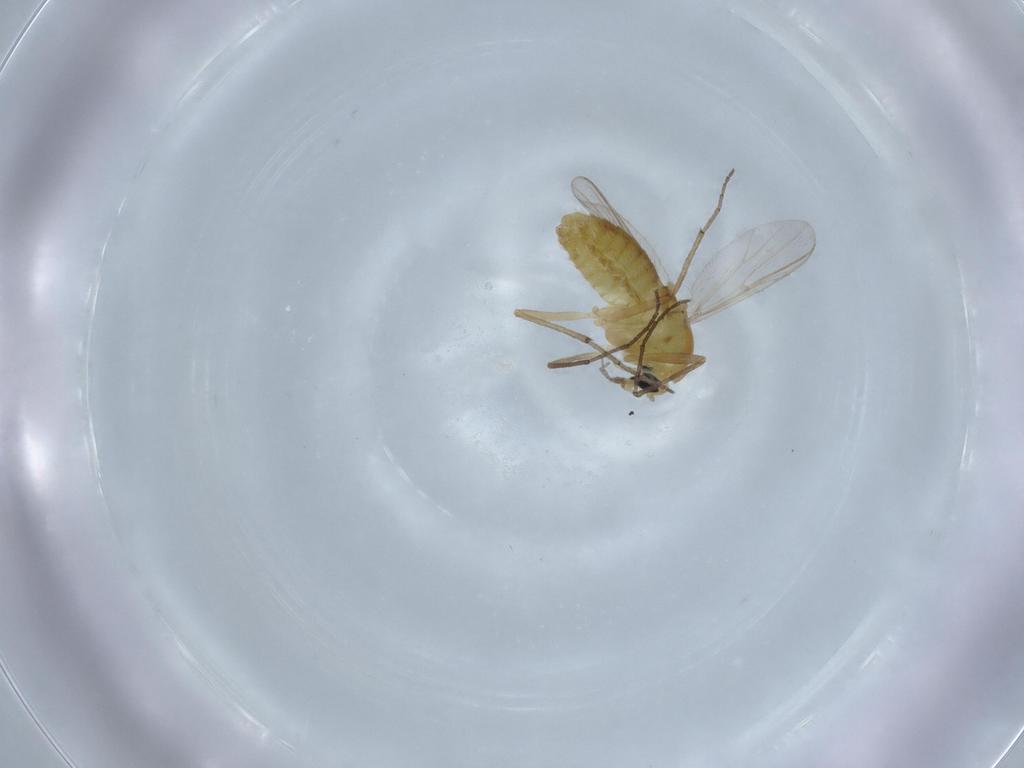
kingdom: Animalia
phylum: Arthropoda
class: Insecta
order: Diptera
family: Ceratopogonidae
